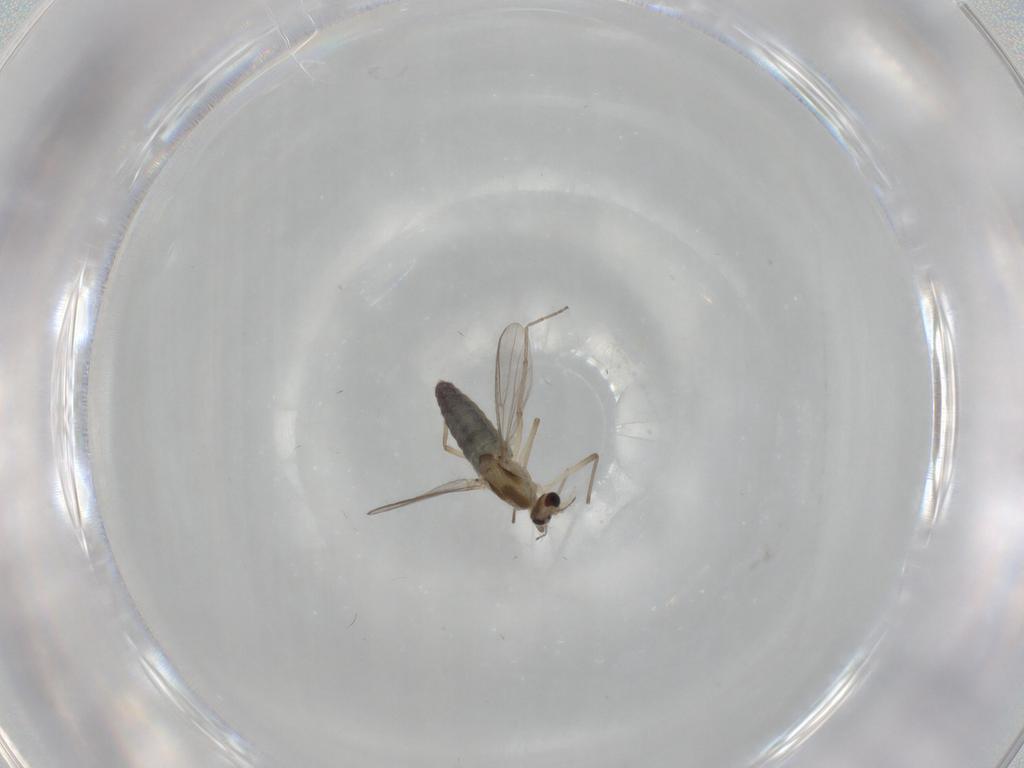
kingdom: Animalia
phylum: Arthropoda
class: Insecta
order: Diptera
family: Chironomidae
